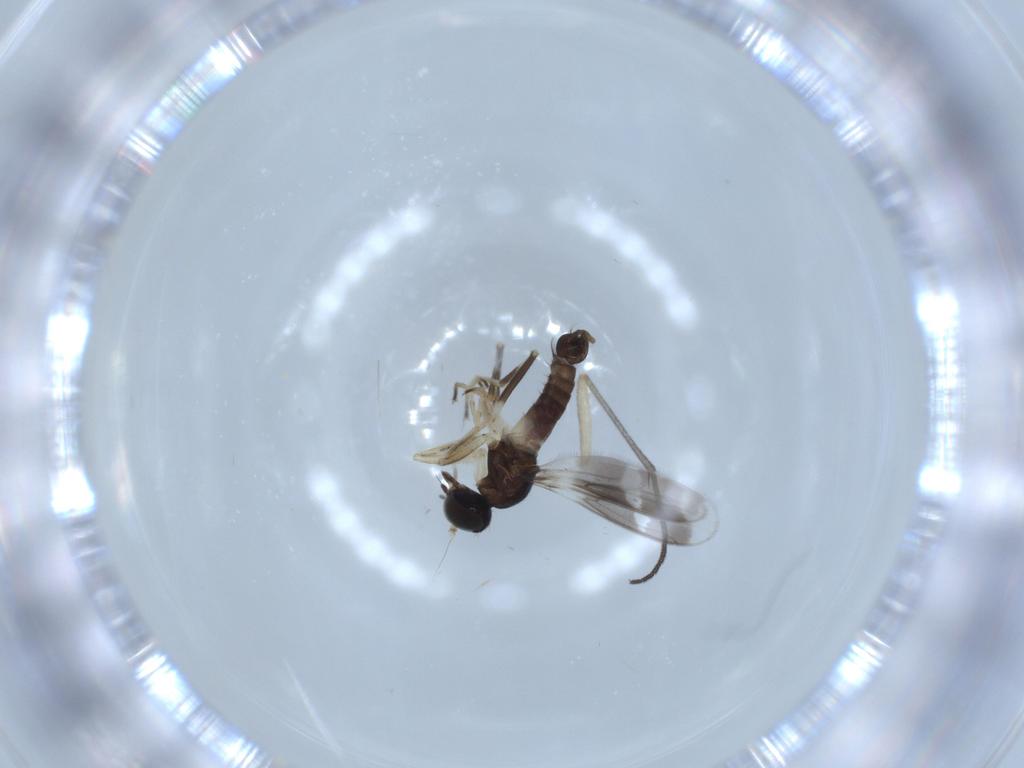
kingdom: Animalia
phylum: Arthropoda
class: Insecta
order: Diptera
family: Hybotidae
